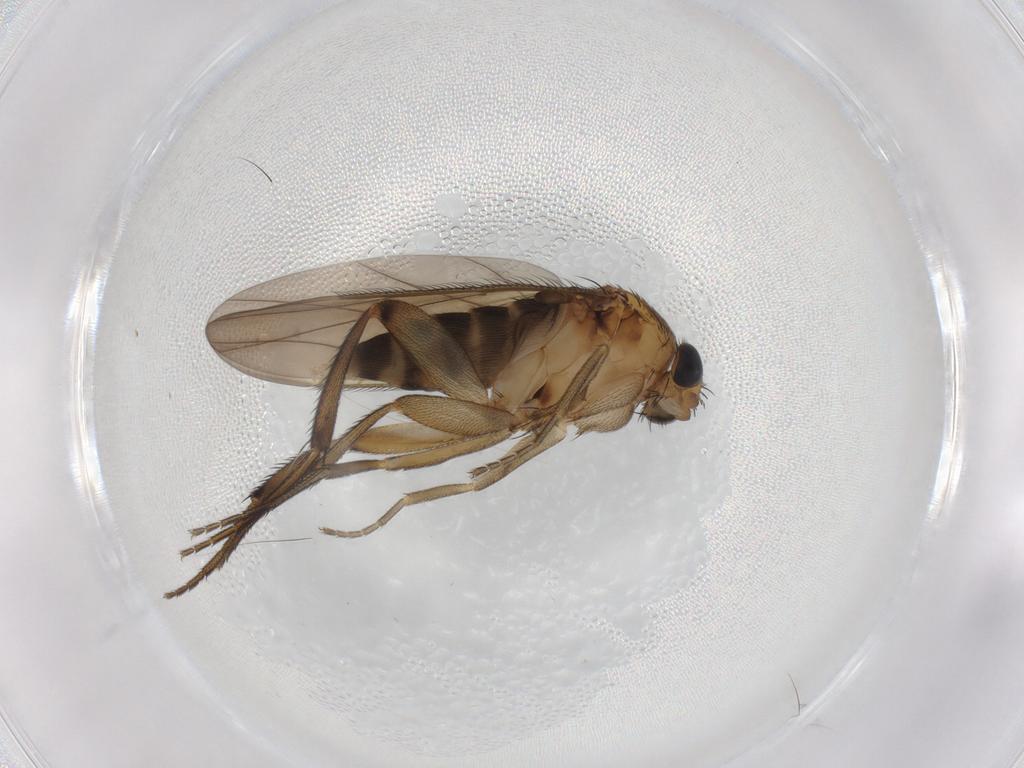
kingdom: Animalia
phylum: Arthropoda
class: Insecta
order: Diptera
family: Phoridae
